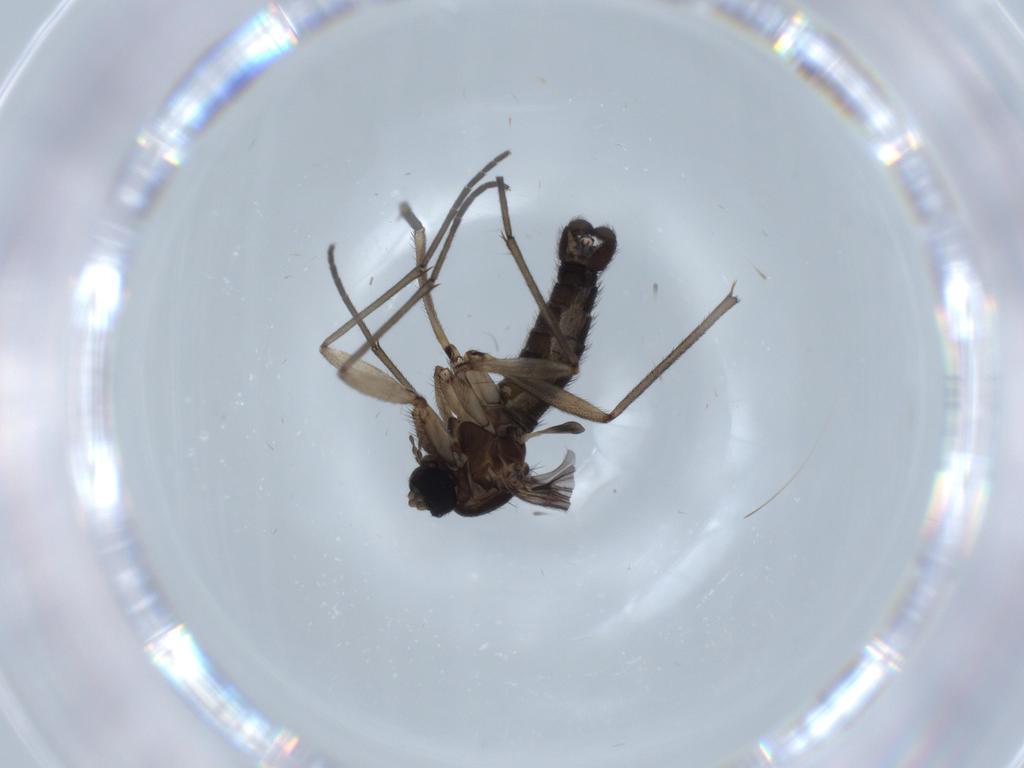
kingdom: Animalia
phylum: Arthropoda
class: Insecta
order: Diptera
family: Sciaridae
